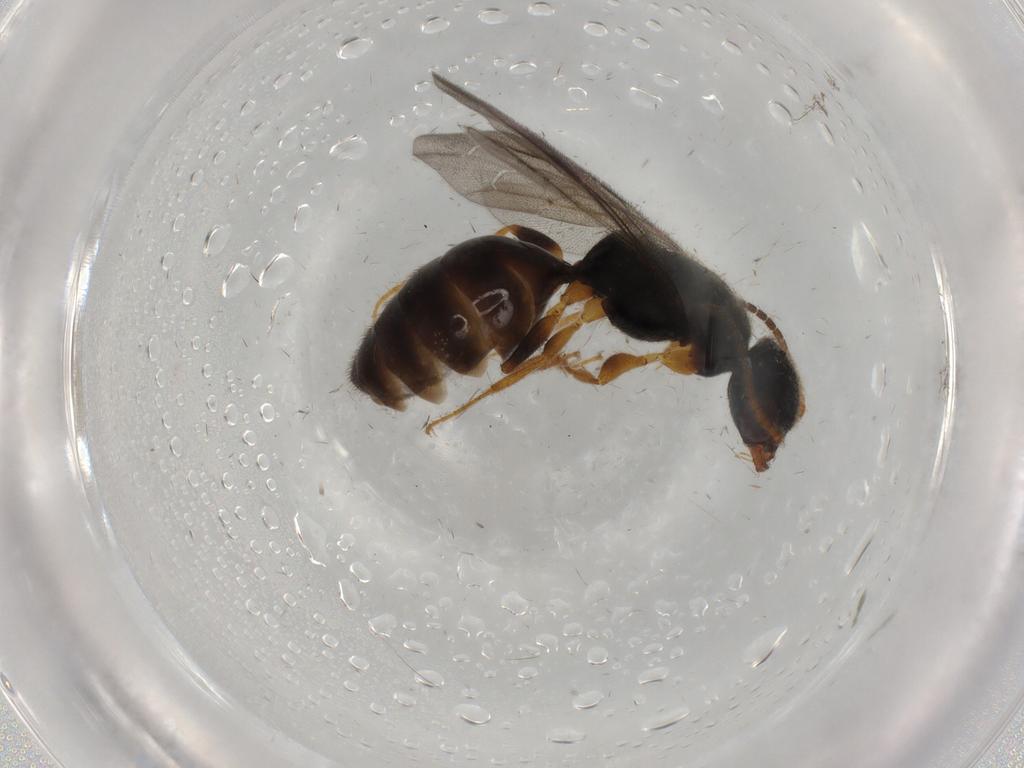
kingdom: Animalia
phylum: Arthropoda
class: Insecta
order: Hymenoptera
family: Bethylidae
